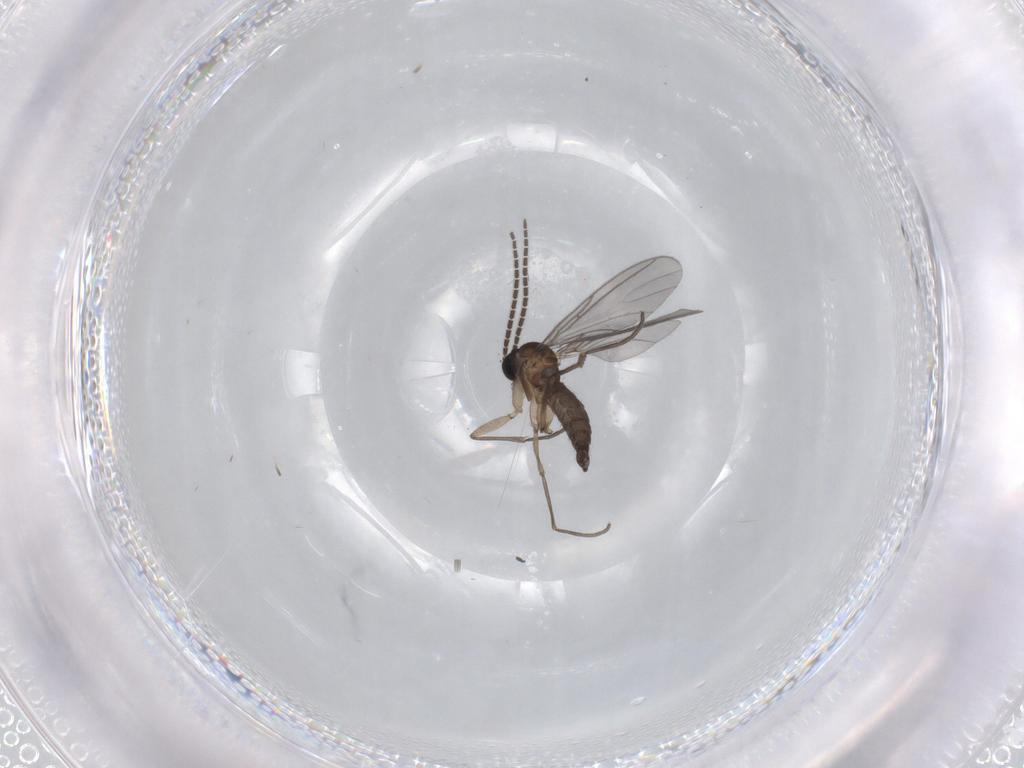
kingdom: Animalia
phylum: Arthropoda
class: Insecta
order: Diptera
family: Sciaridae
